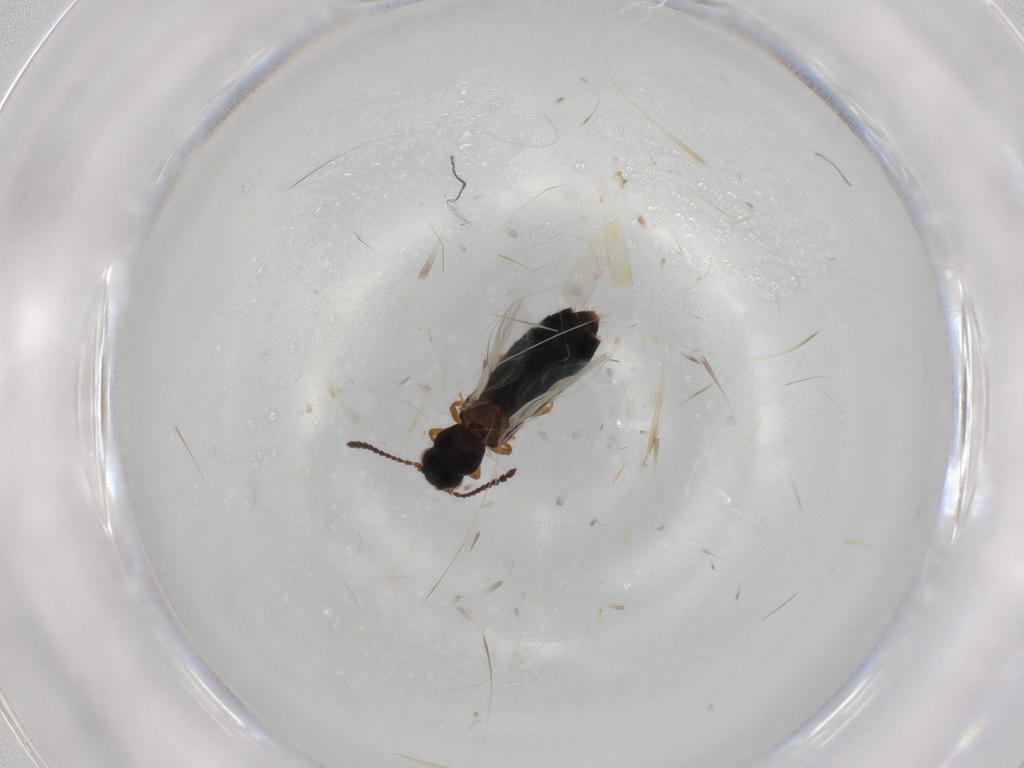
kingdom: Animalia
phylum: Arthropoda
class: Insecta
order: Coleoptera
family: Staphylinidae
